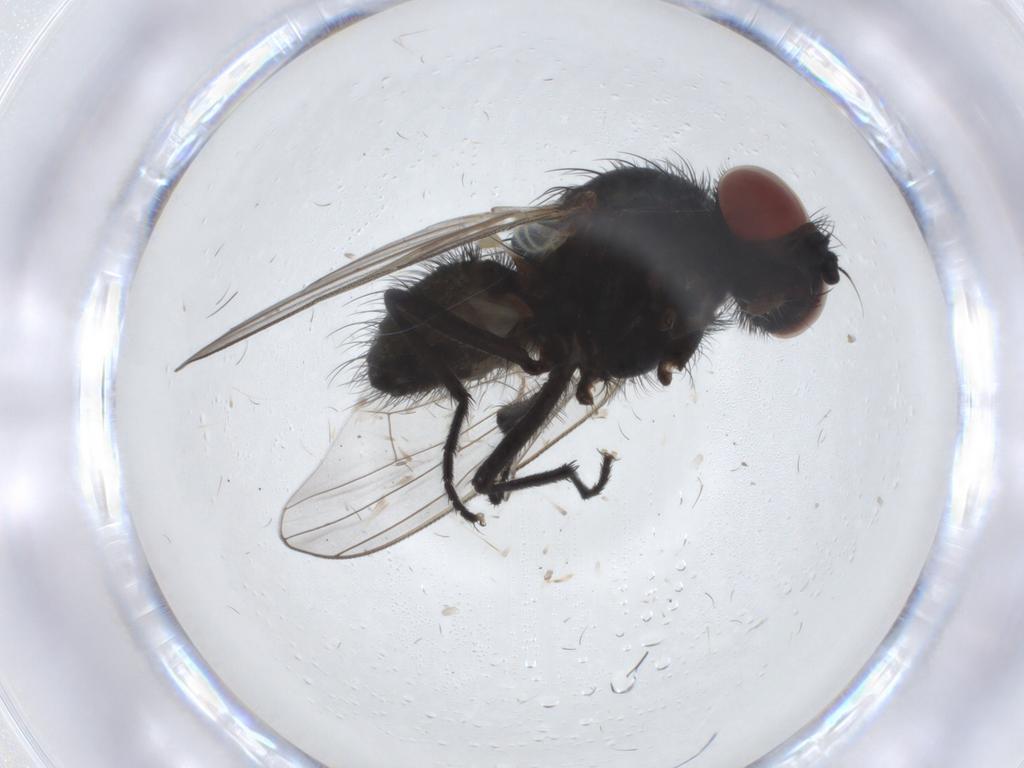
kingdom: Animalia
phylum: Arthropoda
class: Insecta
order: Diptera
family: Anthomyiidae
